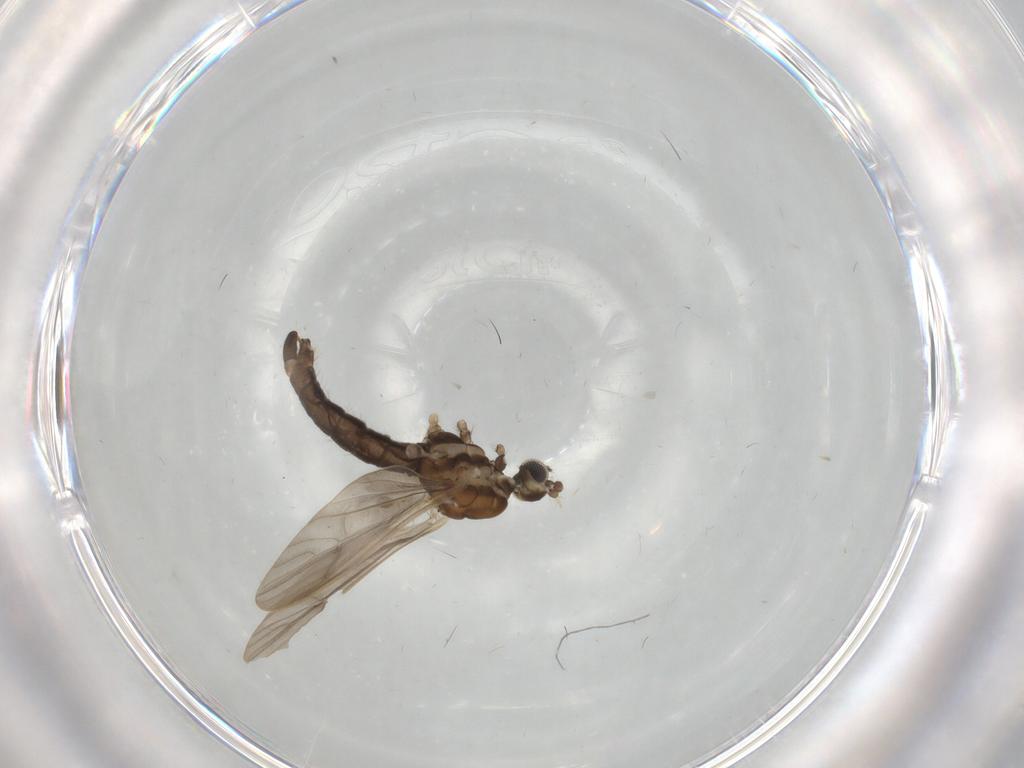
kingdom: Animalia
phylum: Arthropoda
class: Insecta
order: Diptera
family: Limoniidae
